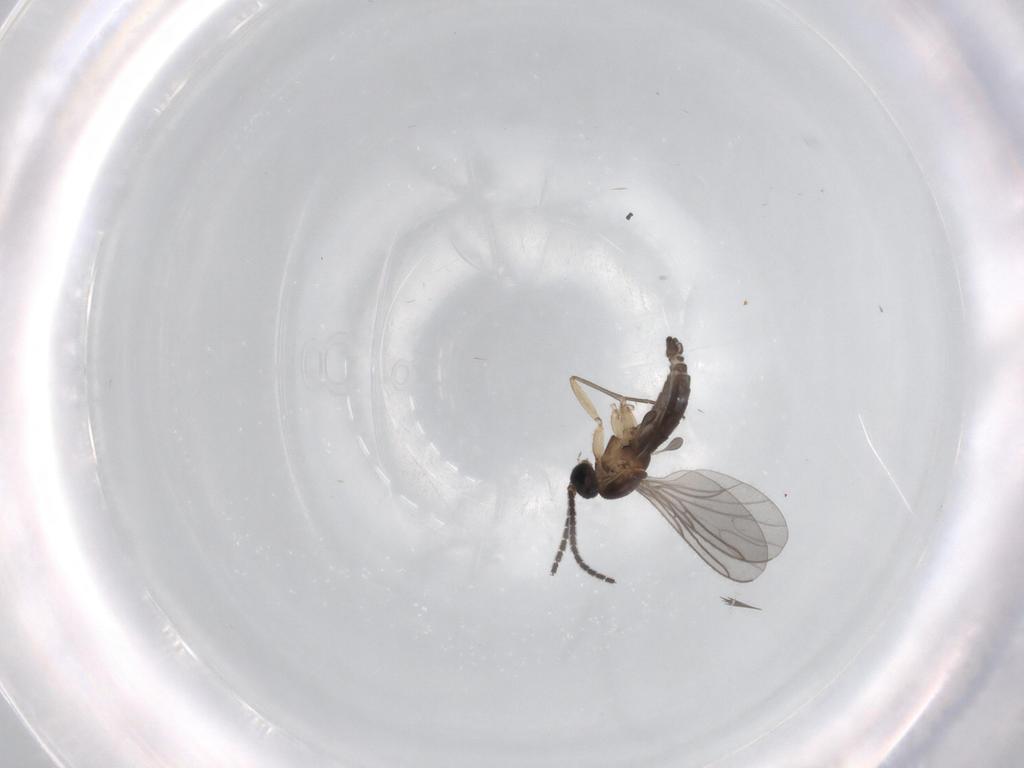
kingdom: Animalia
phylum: Arthropoda
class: Insecta
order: Diptera
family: Sciaridae
